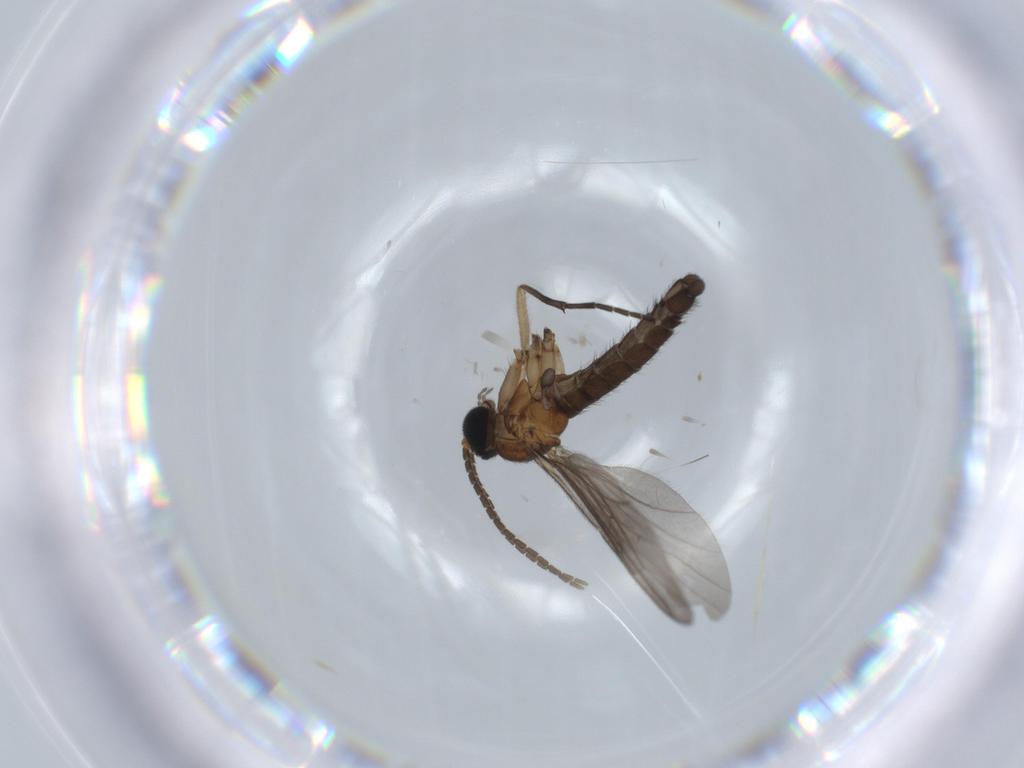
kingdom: Animalia
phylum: Arthropoda
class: Insecta
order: Diptera
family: Sciaridae
